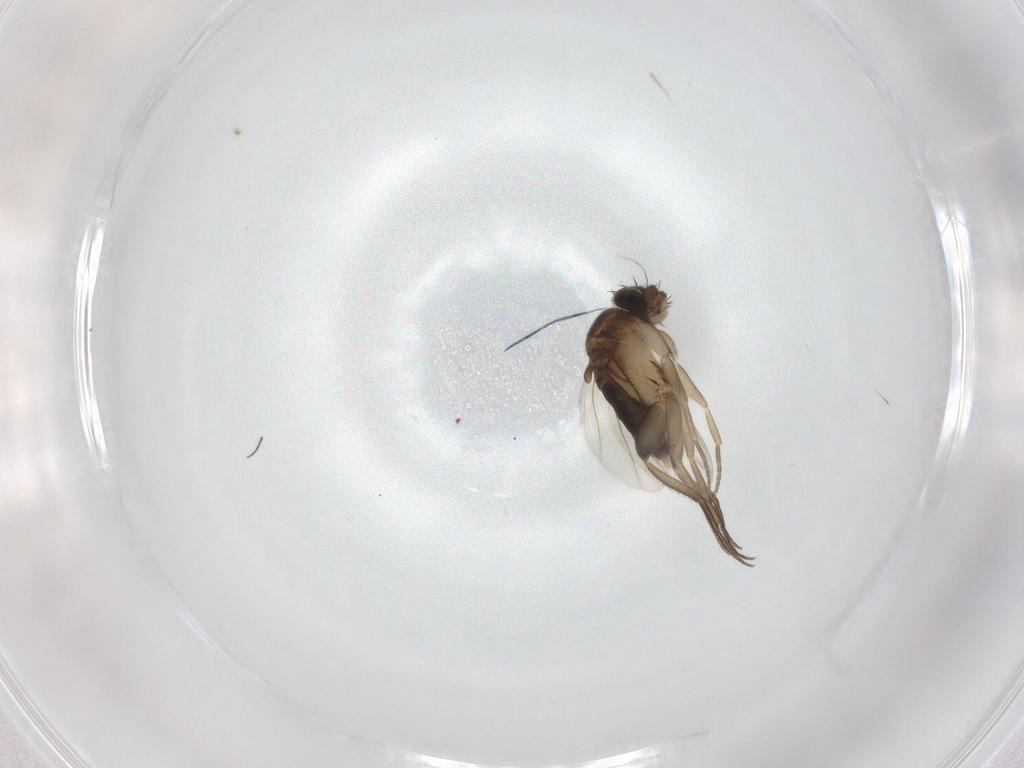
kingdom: Animalia
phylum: Arthropoda
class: Insecta
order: Diptera
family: Phoridae
